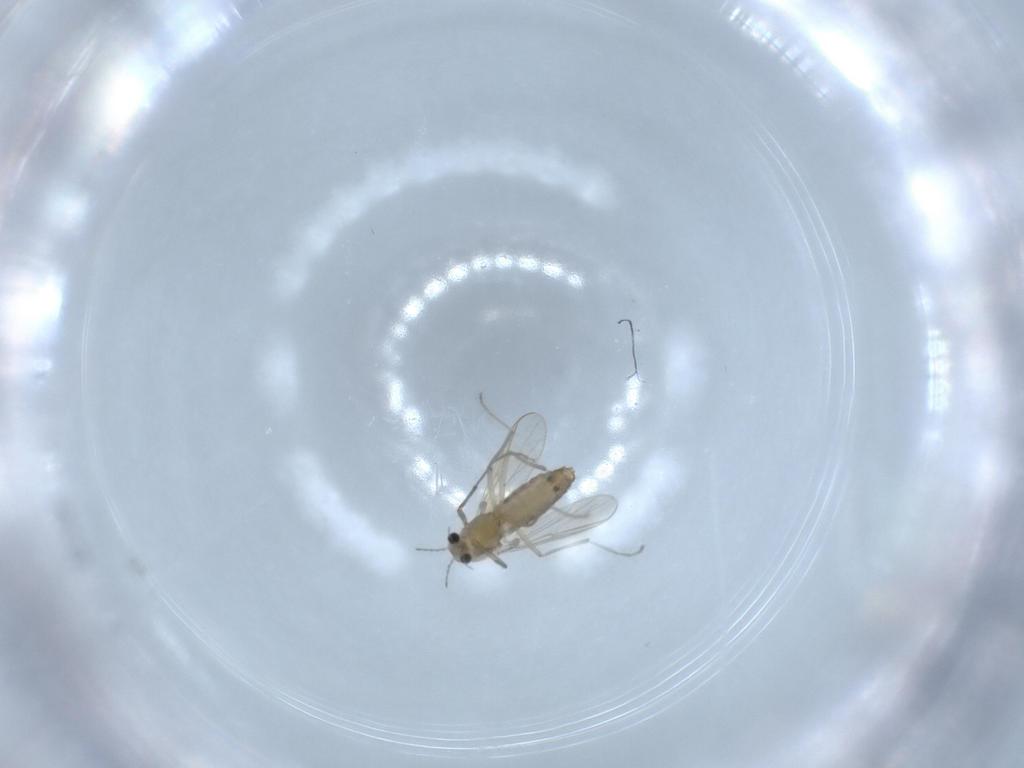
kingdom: Animalia
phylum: Arthropoda
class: Insecta
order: Diptera
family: Chironomidae
